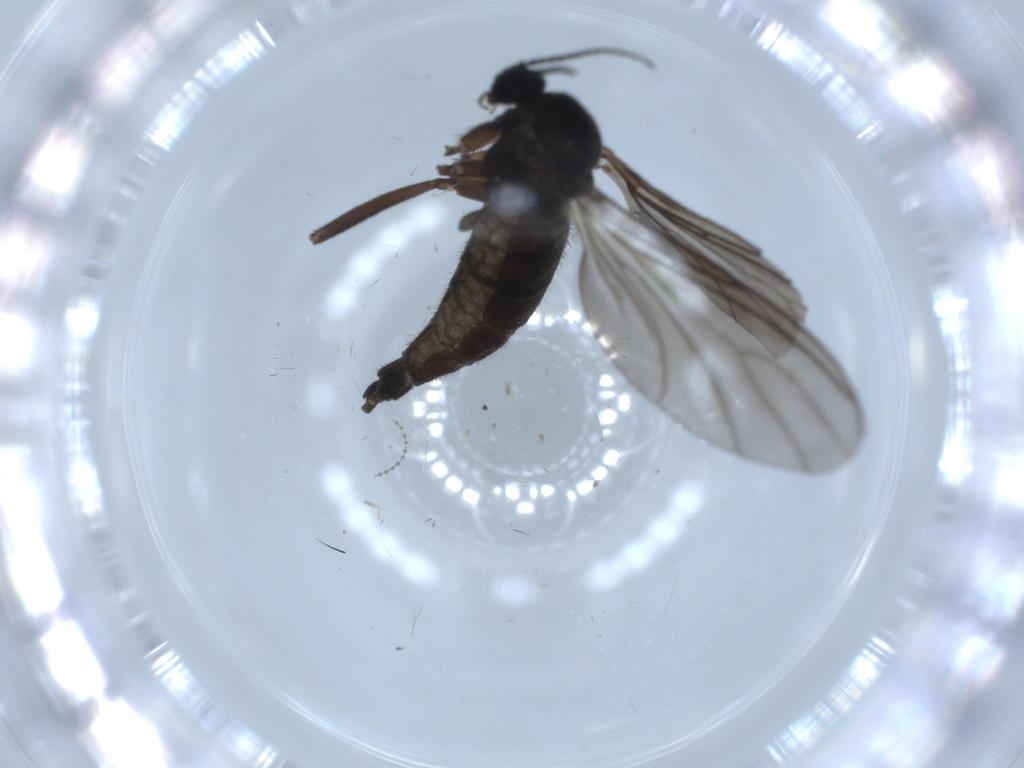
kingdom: Animalia
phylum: Arthropoda
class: Insecta
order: Diptera
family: Sciaridae
